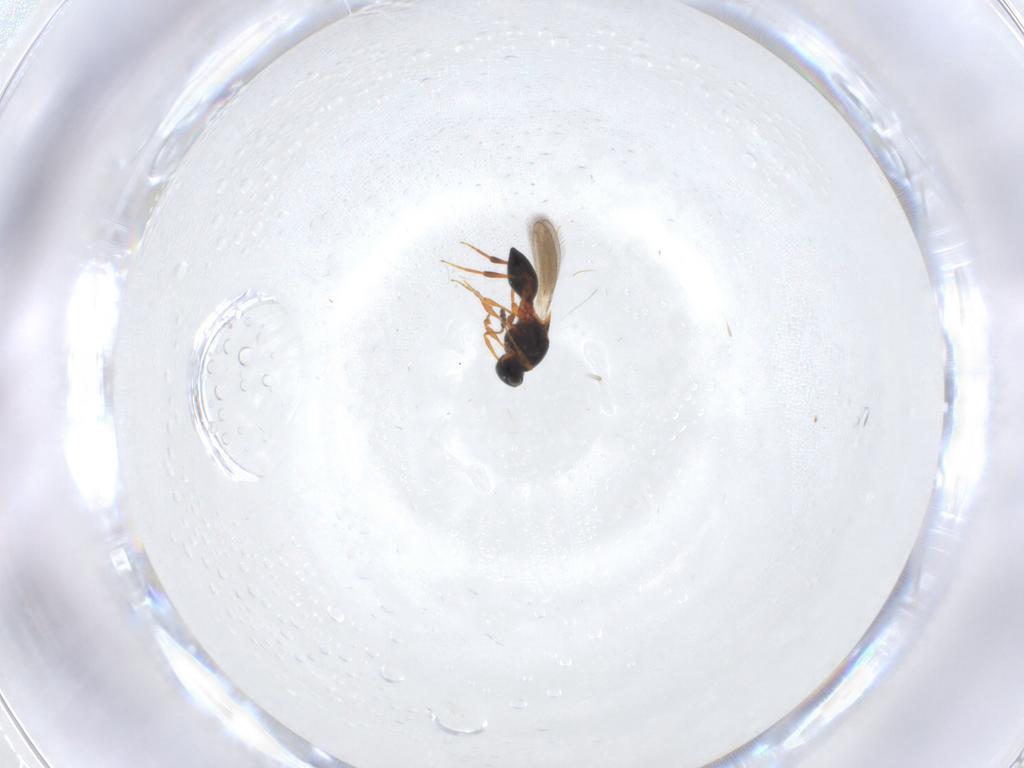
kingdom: Animalia
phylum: Arthropoda
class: Insecta
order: Hymenoptera
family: Platygastridae
